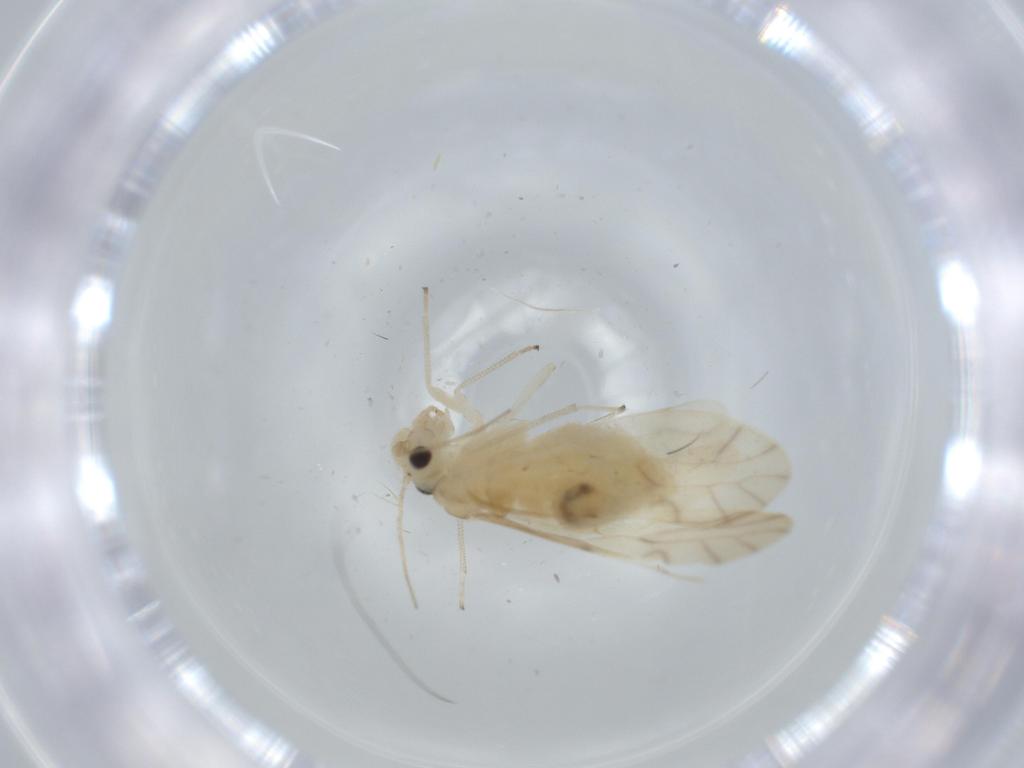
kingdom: Animalia
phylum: Arthropoda
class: Insecta
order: Psocodea
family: Caeciliusidae
